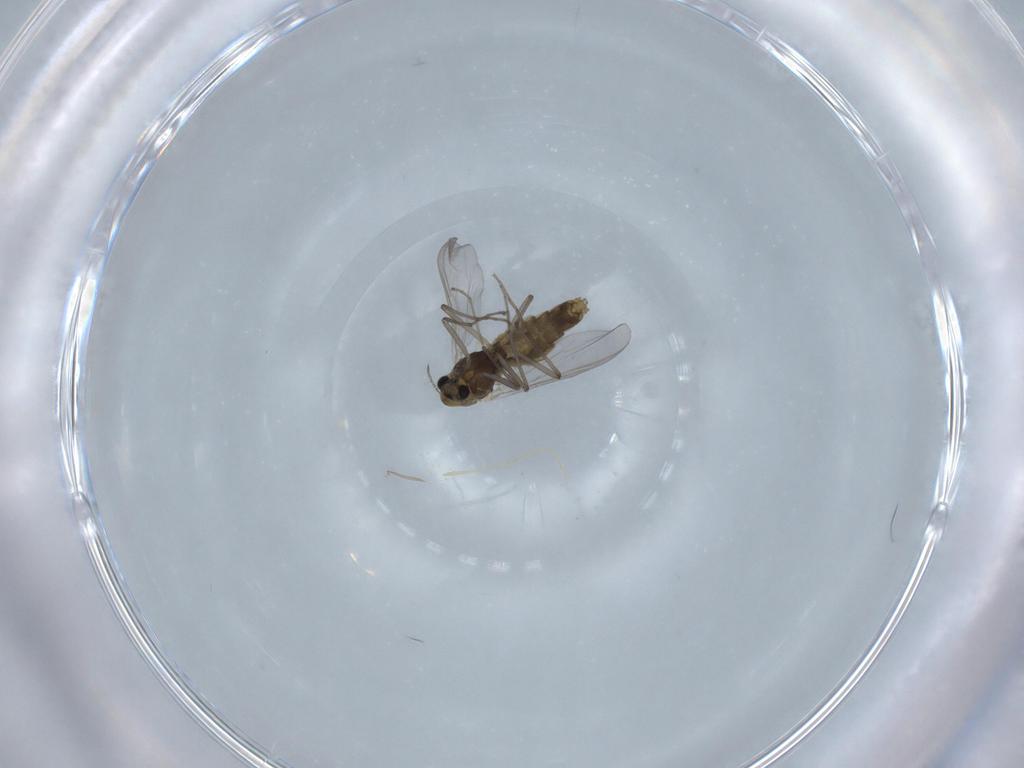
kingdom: Animalia
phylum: Arthropoda
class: Insecta
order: Diptera
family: Chironomidae
